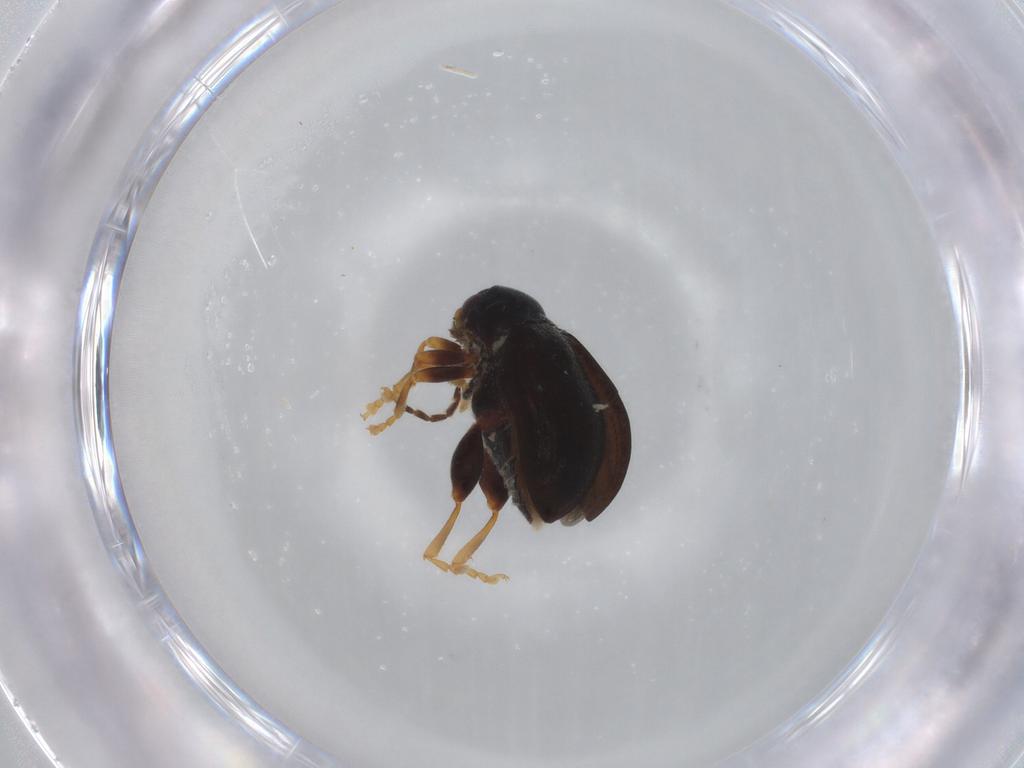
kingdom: Animalia
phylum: Arthropoda
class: Insecta
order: Coleoptera
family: Chrysomelidae
